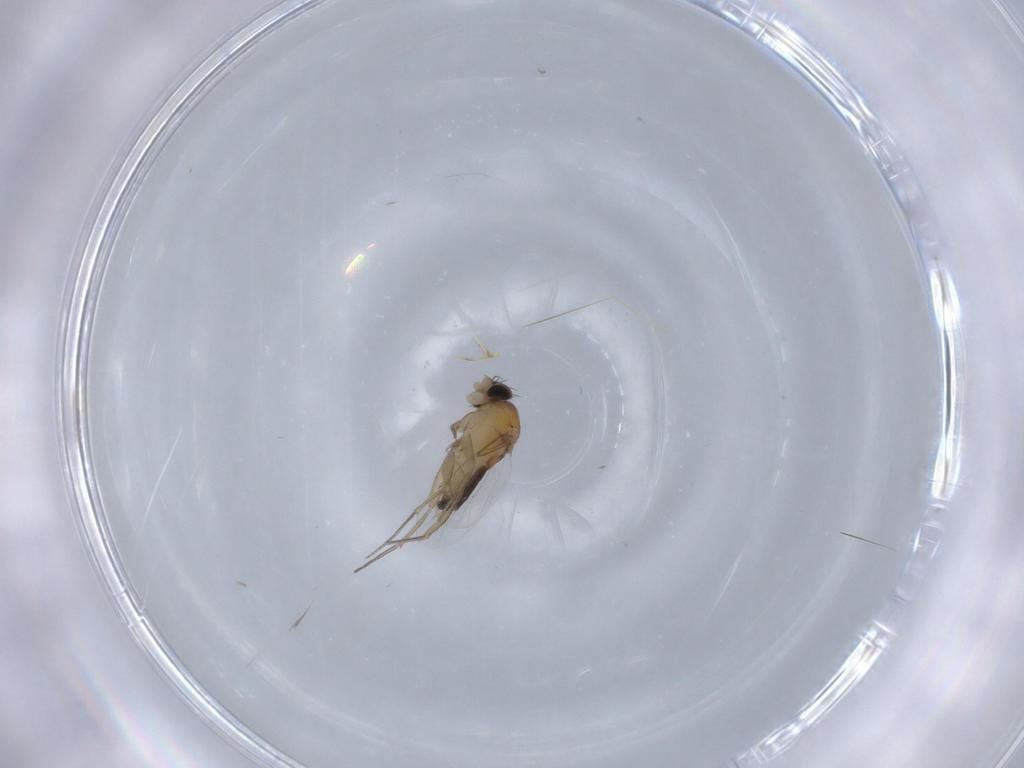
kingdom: Animalia
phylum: Arthropoda
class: Insecta
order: Diptera
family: Phoridae
